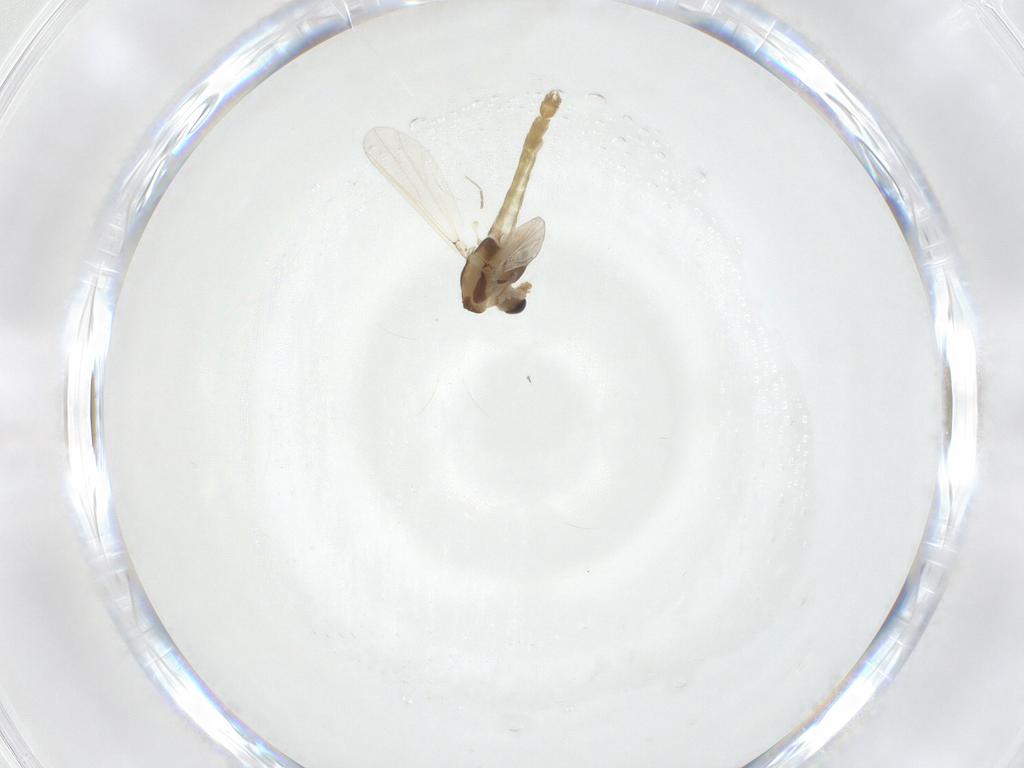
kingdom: Animalia
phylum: Arthropoda
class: Insecta
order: Diptera
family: Chironomidae
